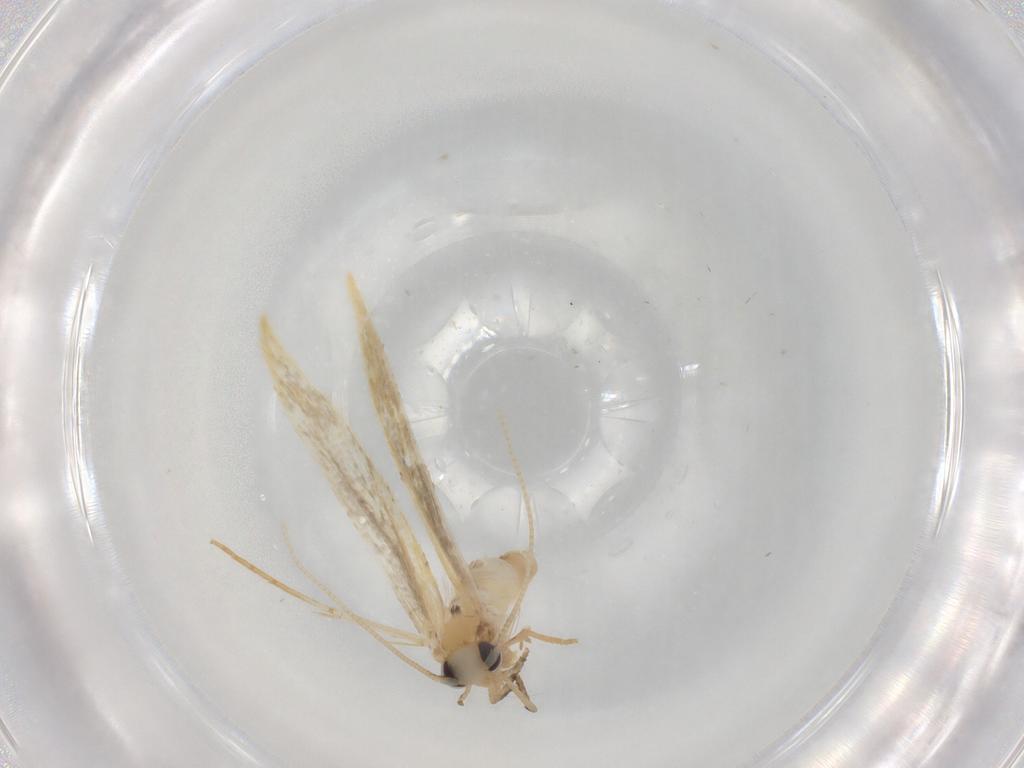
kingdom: Animalia
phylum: Arthropoda
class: Insecta
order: Lepidoptera
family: Tineidae
